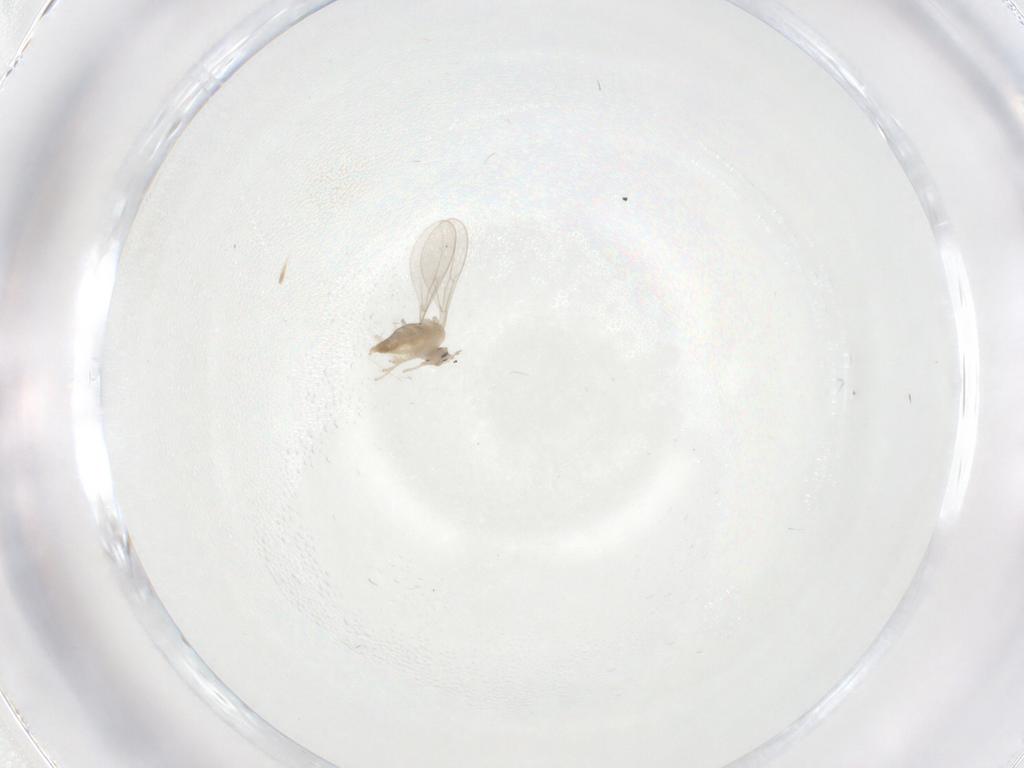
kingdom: Animalia
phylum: Arthropoda
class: Insecta
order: Diptera
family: Cecidomyiidae
